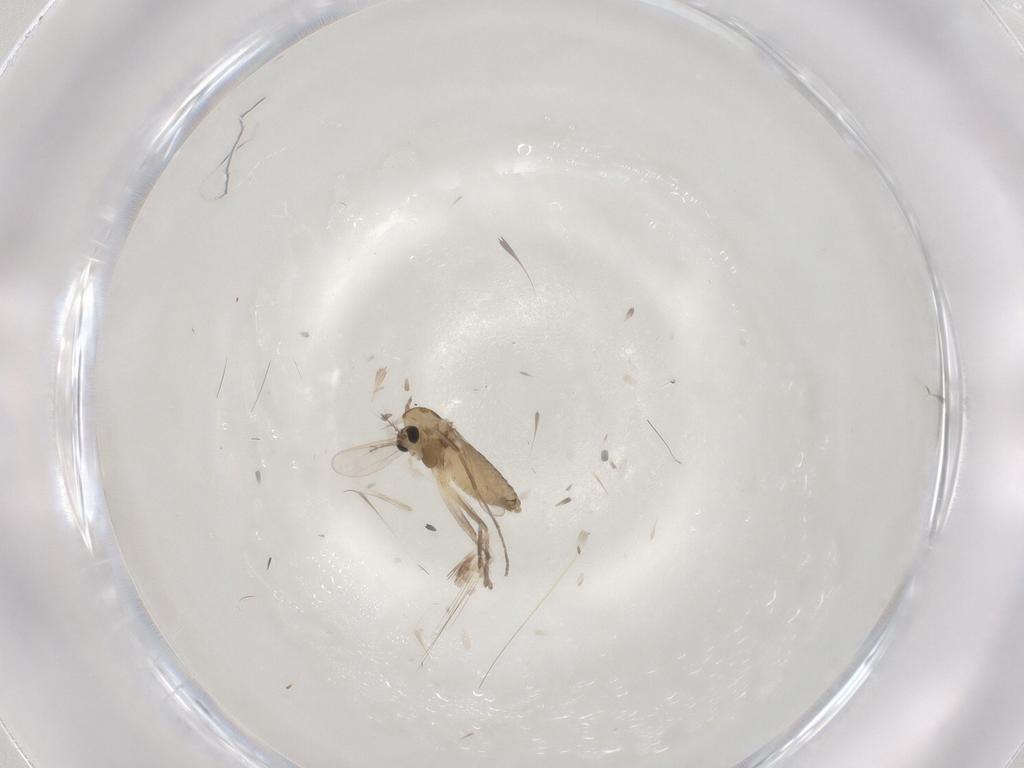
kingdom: Animalia
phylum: Arthropoda
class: Insecta
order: Diptera
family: Chironomidae
